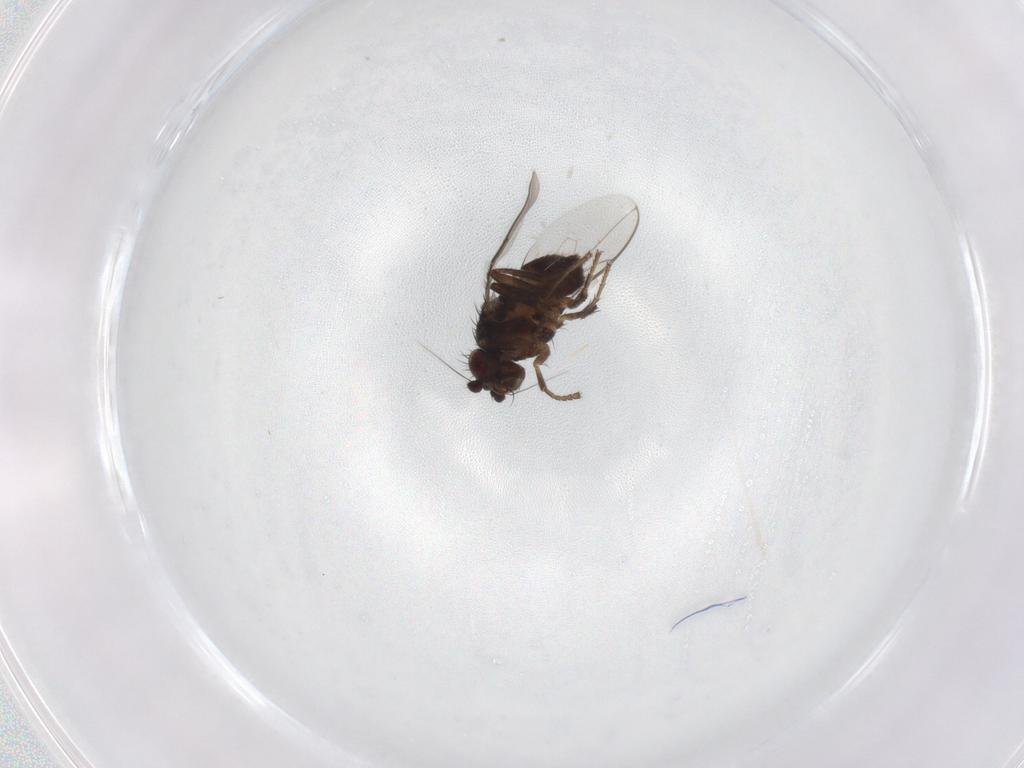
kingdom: Animalia
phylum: Arthropoda
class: Insecta
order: Diptera
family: Sphaeroceridae
